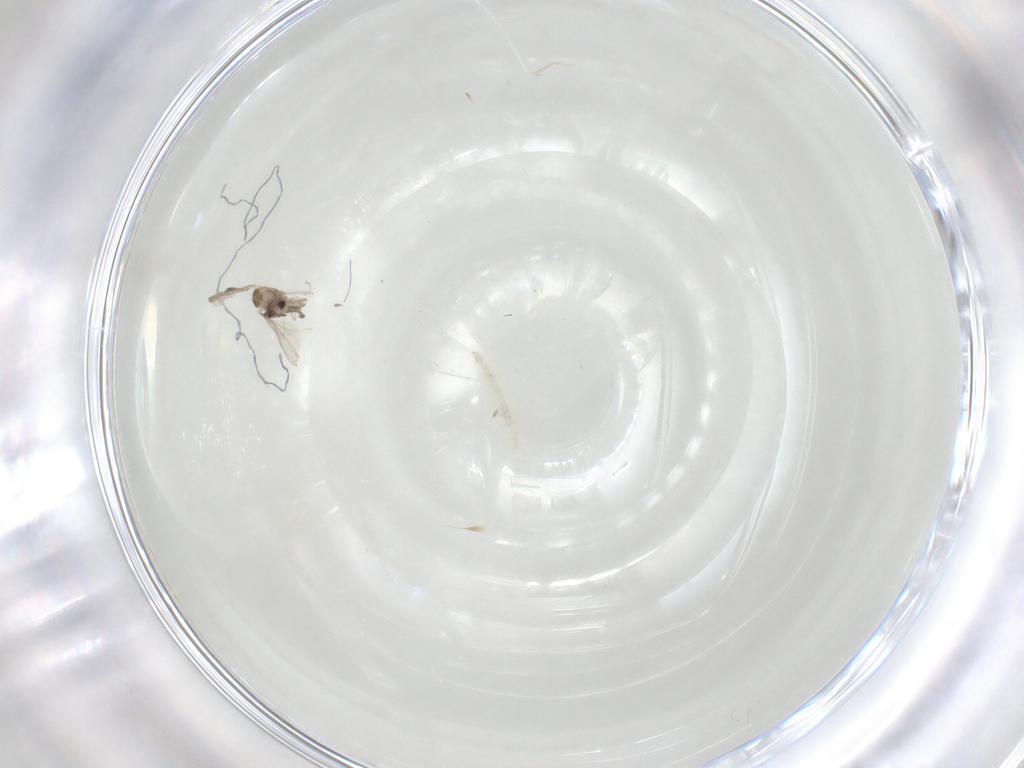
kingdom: Animalia
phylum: Arthropoda
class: Insecta
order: Diptera
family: Cecidomyiidae
